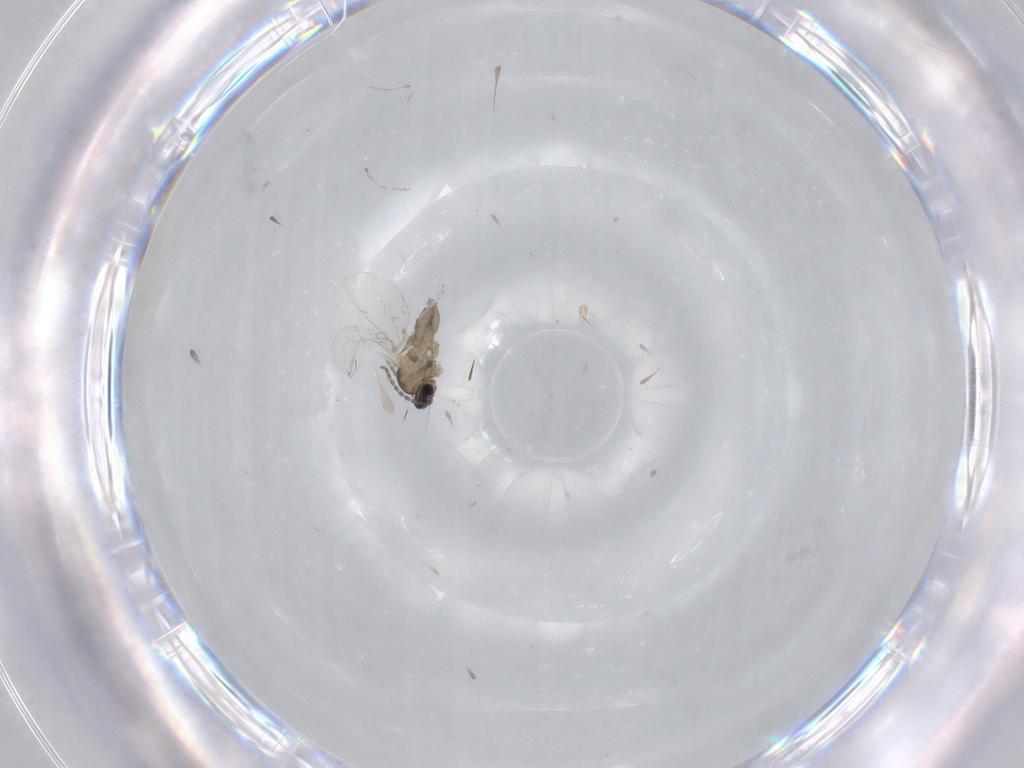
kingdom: Animalia
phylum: Arthropoda
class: Insecta
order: Diptera
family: Cecidomyiidae
